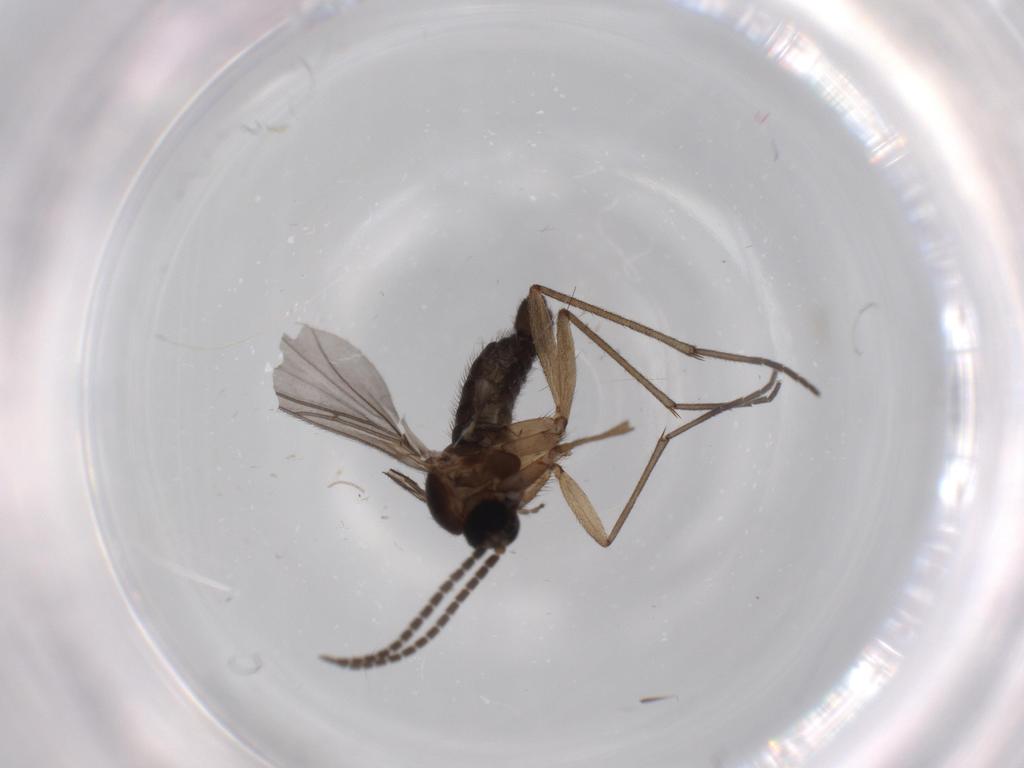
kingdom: Animalia
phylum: Arthropoda
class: Insecta
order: Diptera
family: Sciaridae
